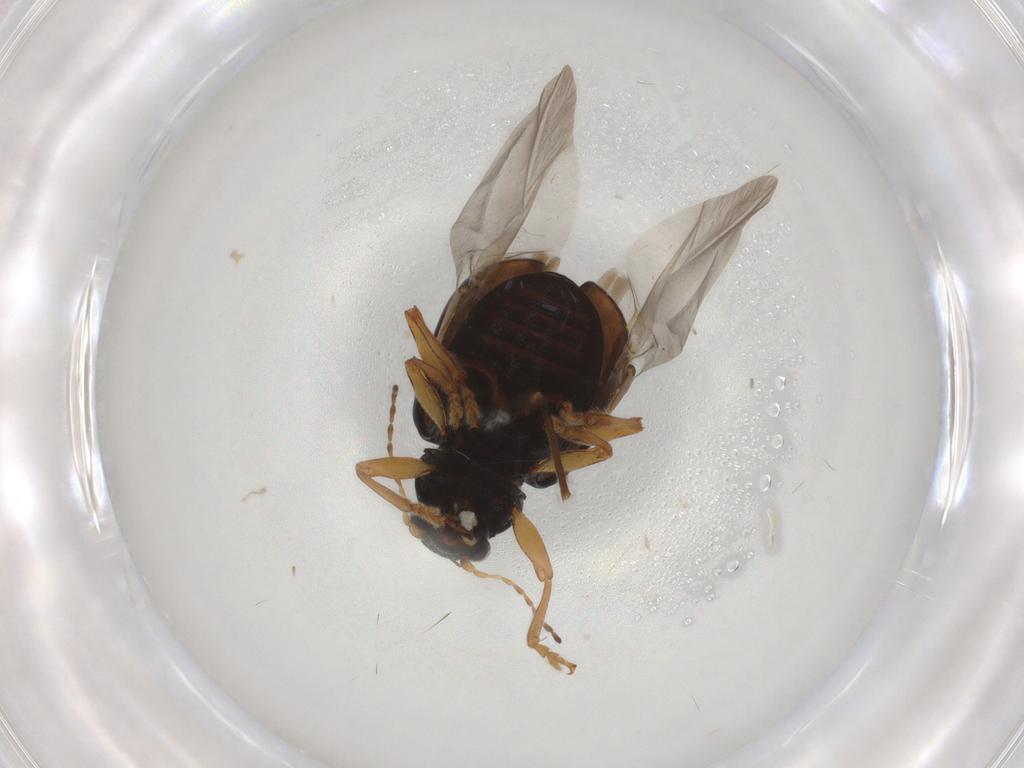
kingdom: Animalia
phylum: Arthropoda
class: Insecta
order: Coleoptera
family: Chrysomelidae
